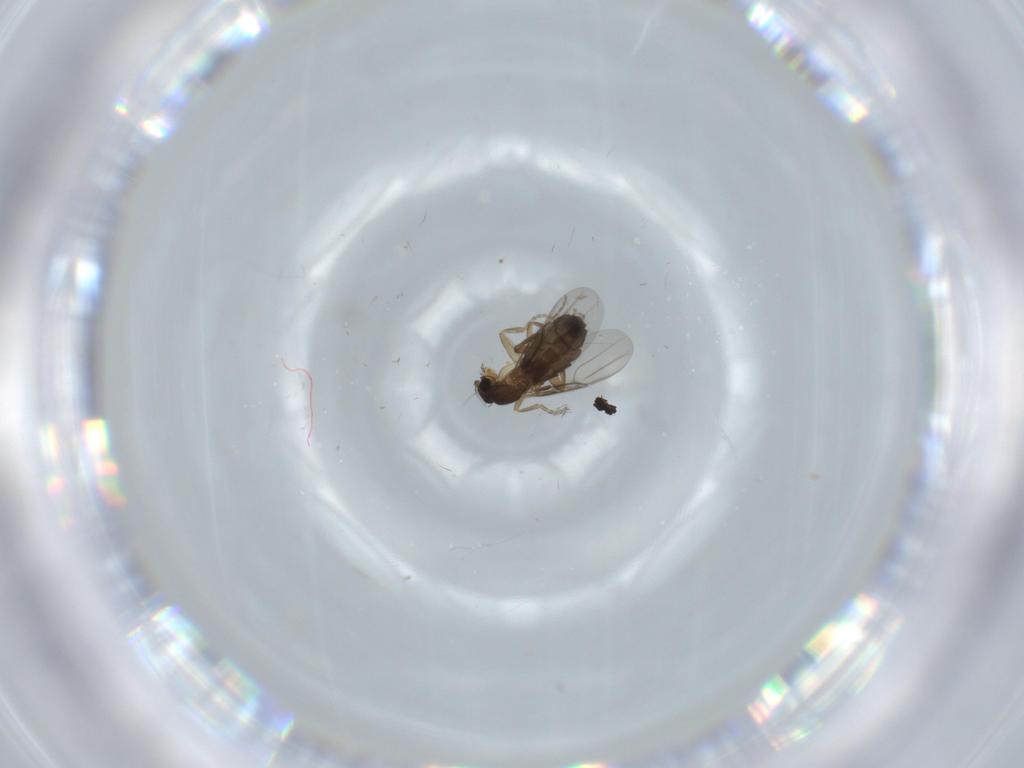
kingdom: Animalia
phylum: Arthropoda
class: Insecta
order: Diptera
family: Phoridae
